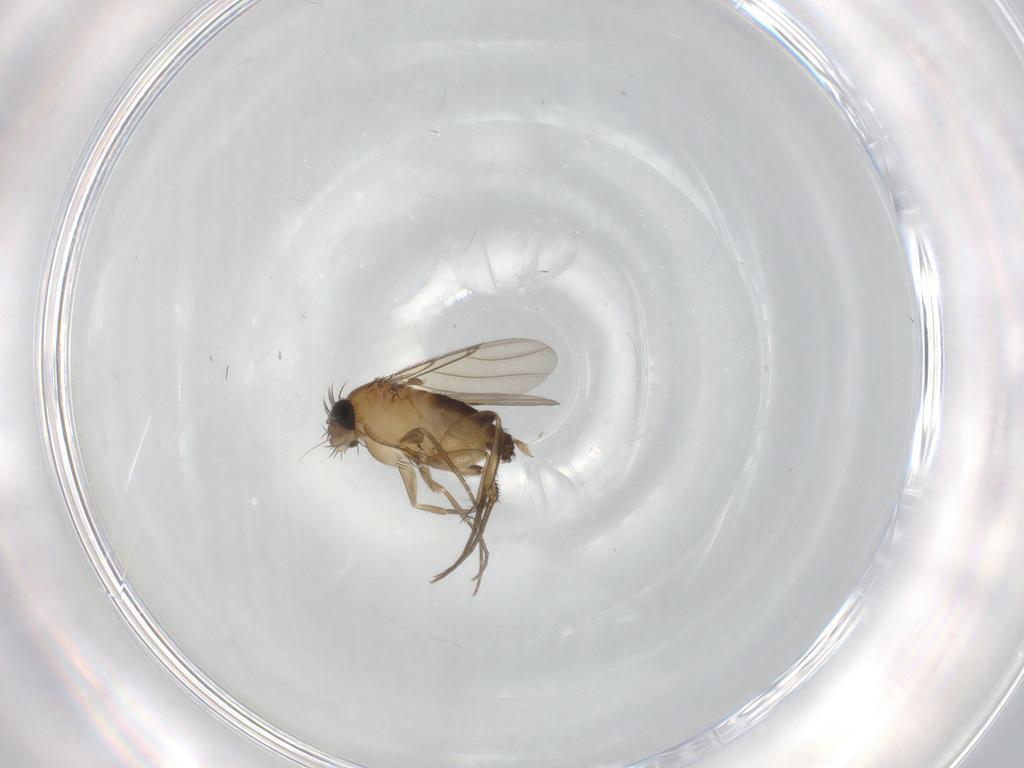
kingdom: Animalia
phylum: Arthropoda
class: Insecta
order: Diptera
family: Phoridae
